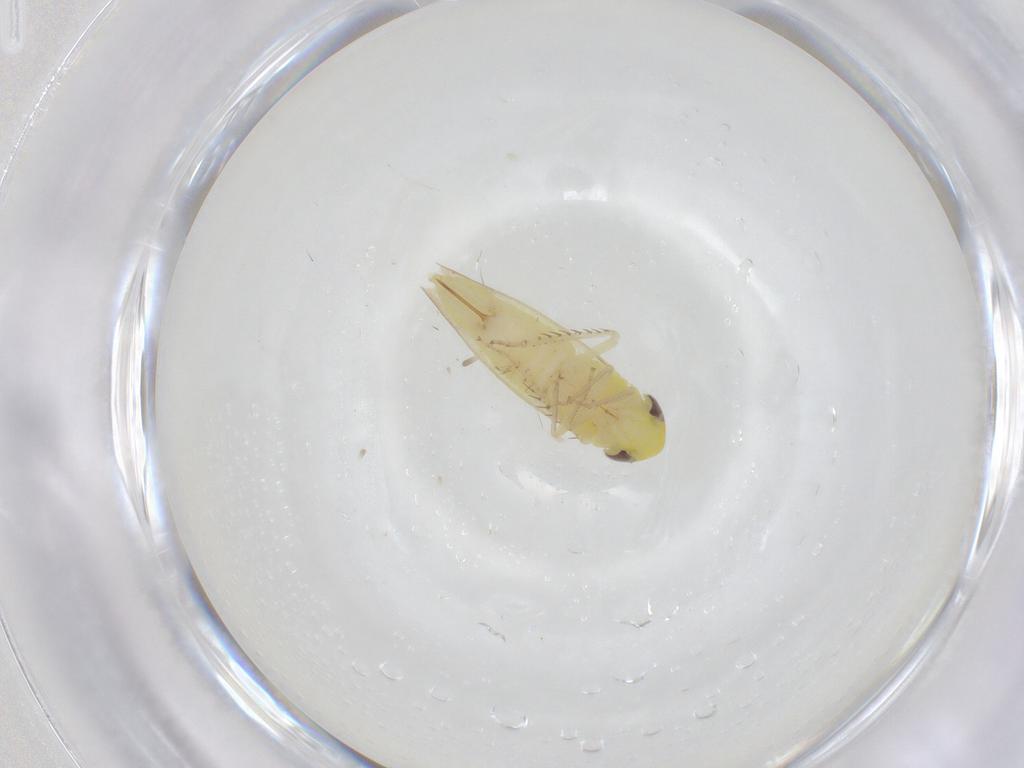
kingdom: Animalia
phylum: Arthropoda
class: Insecta
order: Hemiptera
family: Cicadellidae
